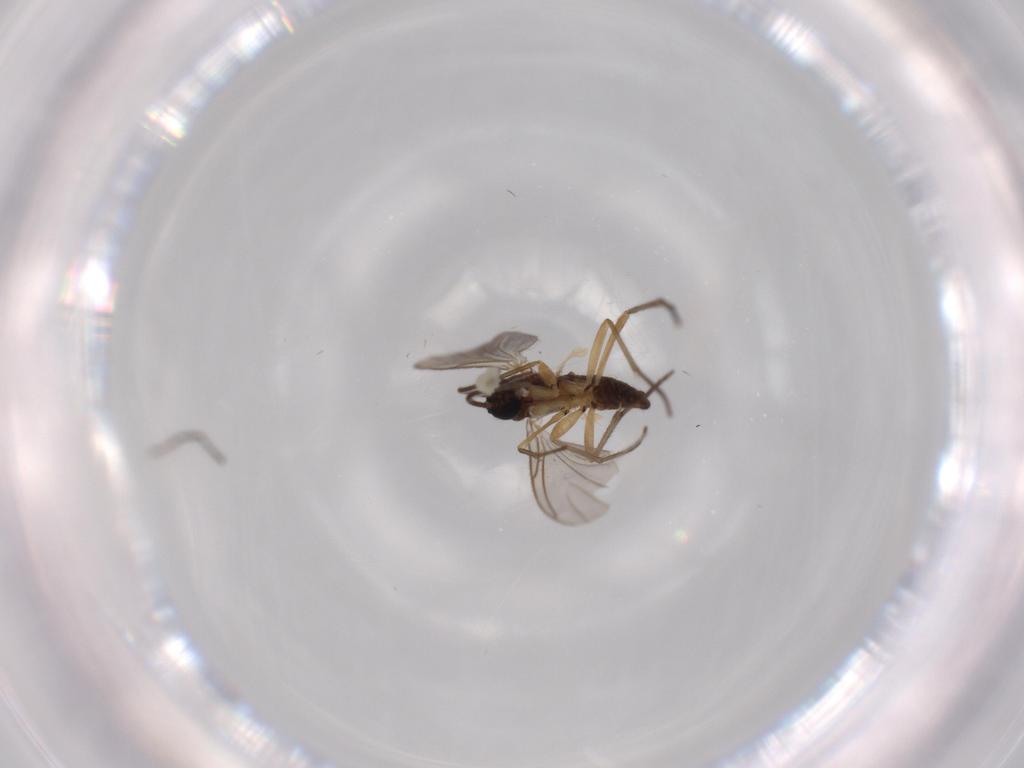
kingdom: Animalia
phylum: Arthropoda
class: Insecta
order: Diptera
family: Sciaridae
